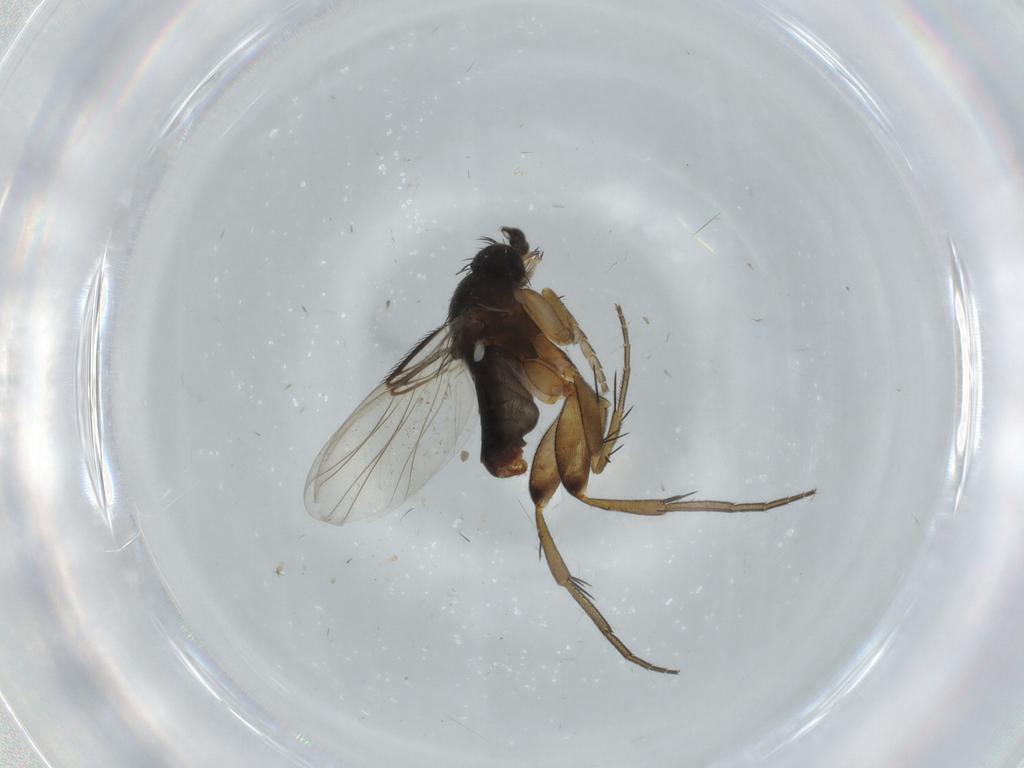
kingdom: Animalia
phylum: Arthropoda
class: Insecta
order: Diptera
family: Phoridae
